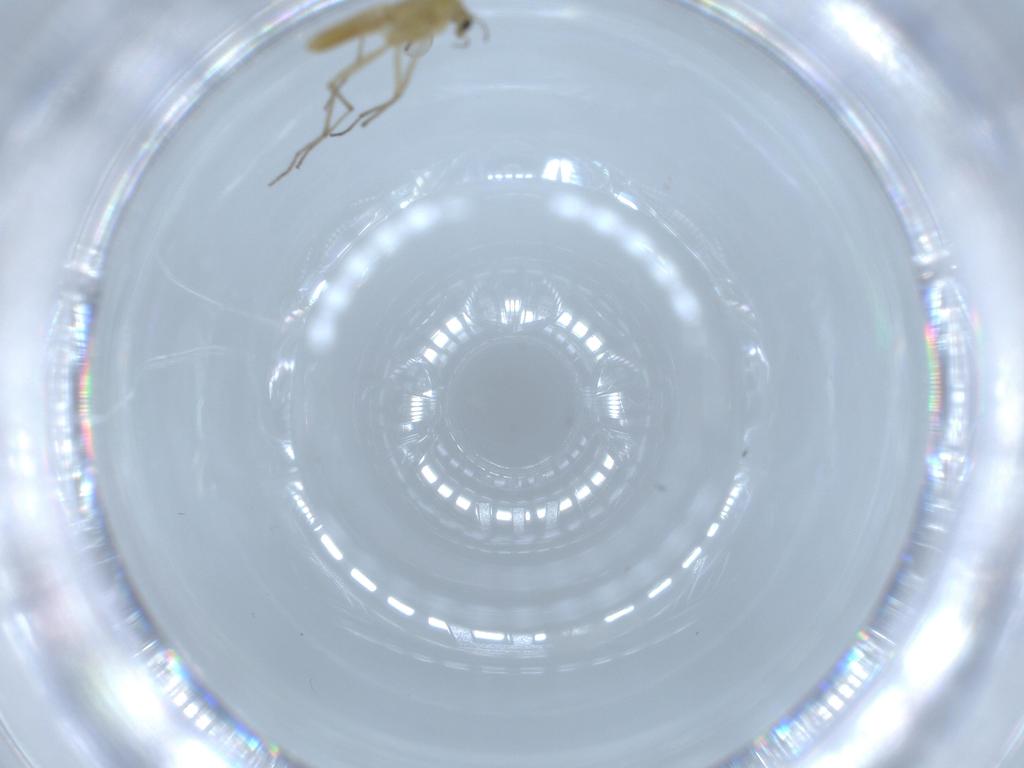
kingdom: Animalia
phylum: Arthropoda
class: Insecta
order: Diptera
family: Chironomidae
